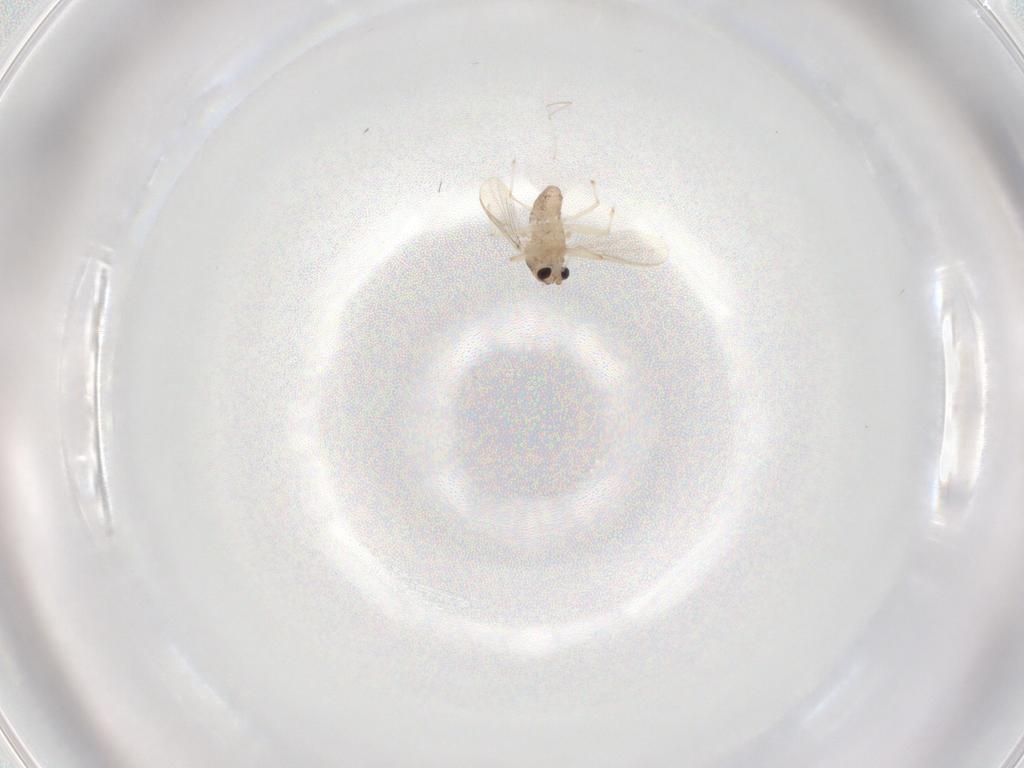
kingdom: Animalia
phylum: Arthropoda
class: Insecta
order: Diptera
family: Chironomidae
